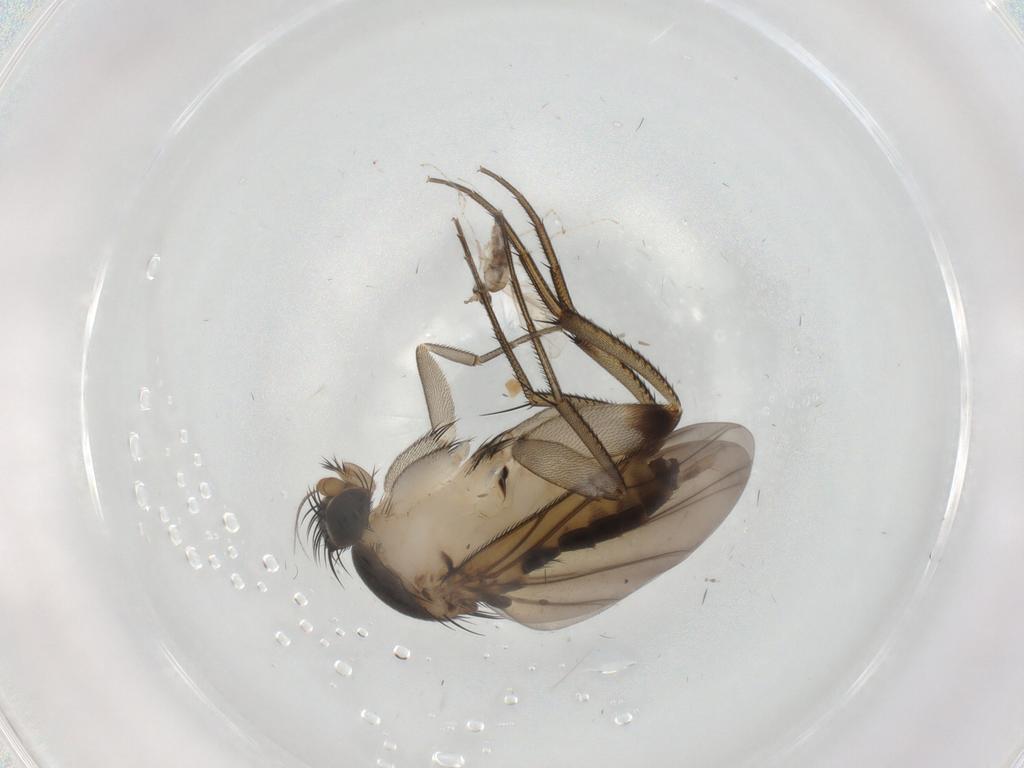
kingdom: Animalia
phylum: Arthropoda
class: Insecta
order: Diptera
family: Phoridae
